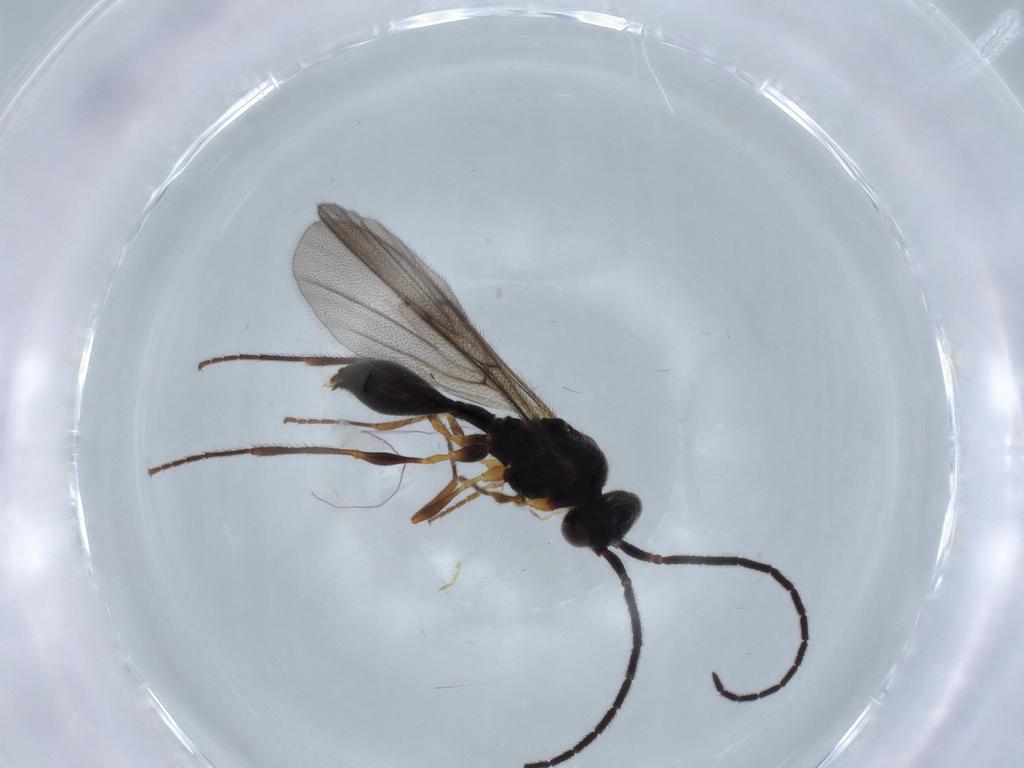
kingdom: Animalia
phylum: Arthropoda
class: Insecta
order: Hymenoptera
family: Diapriidae
